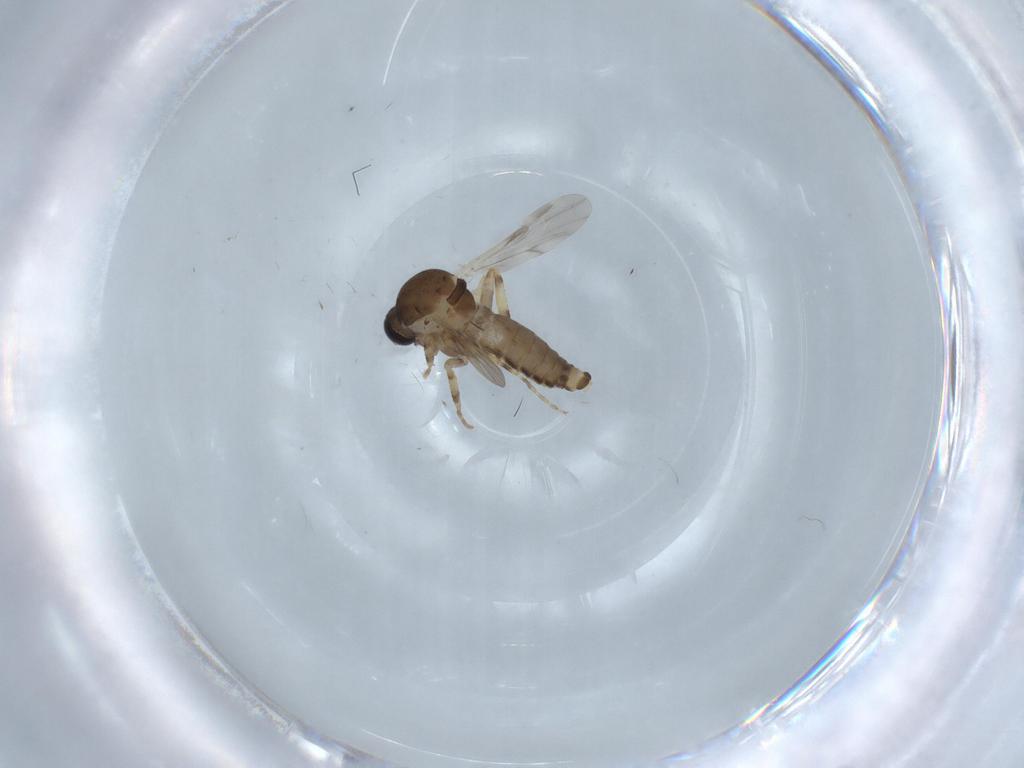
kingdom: Animalia
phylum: Arthropoda
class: Insecta
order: Diptera
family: Ceratopogonidae
